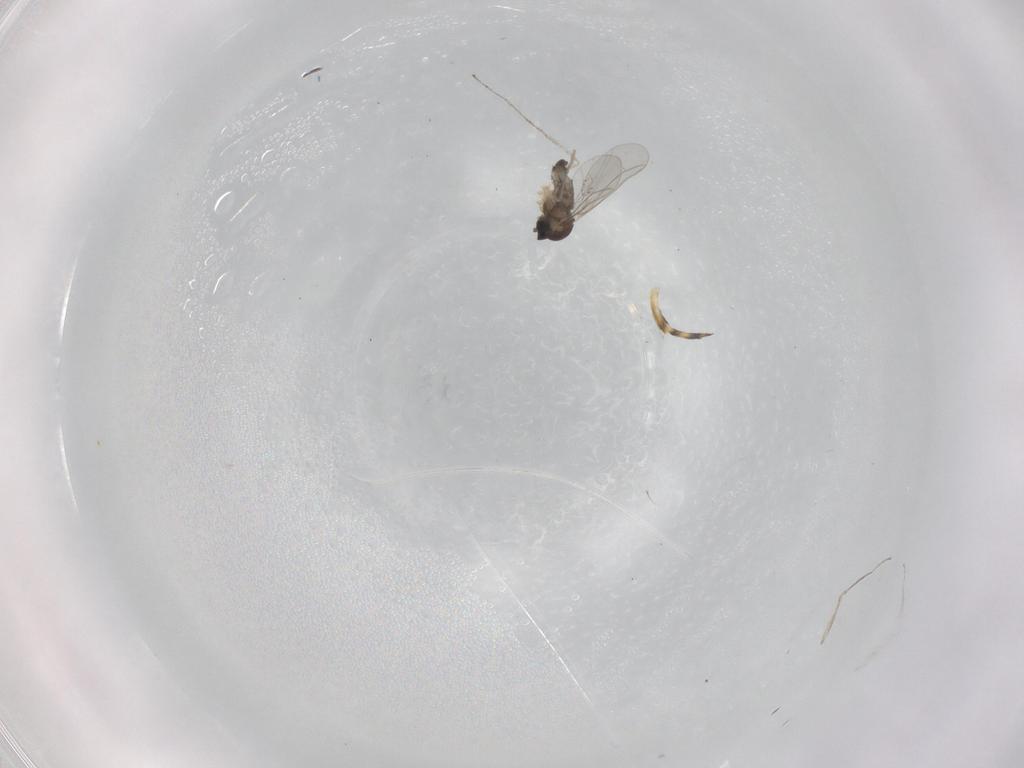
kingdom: Animalia
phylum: Arthropoda
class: Insecta
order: Diptera
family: Cecidomyiidae
